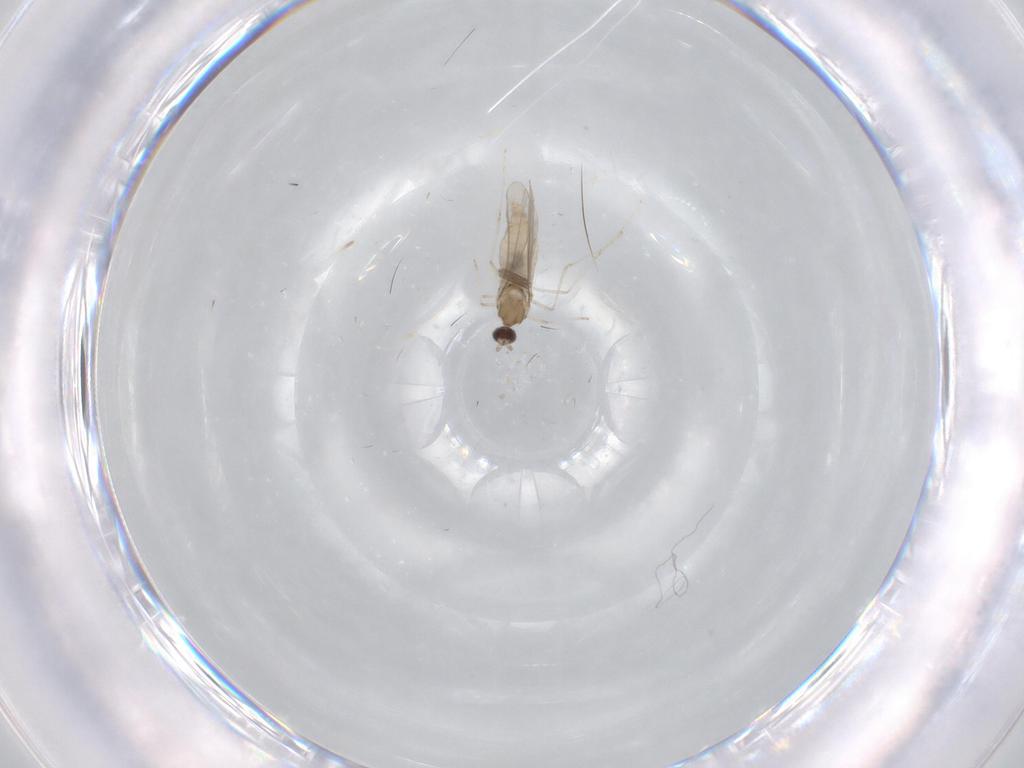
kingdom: Animalia
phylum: Arthropoda
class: Insecta
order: Diptera
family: Cecidomyiidae
